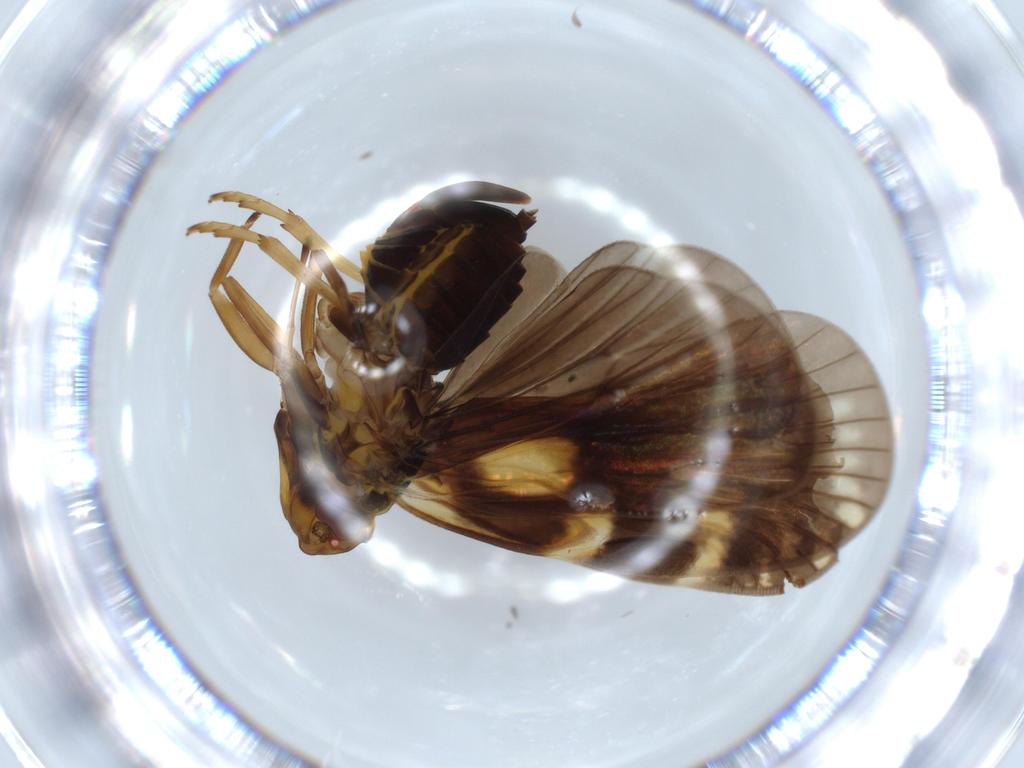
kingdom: Animalia
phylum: Arthropoda
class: Insecta
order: Hemiptera
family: Cixiidae
